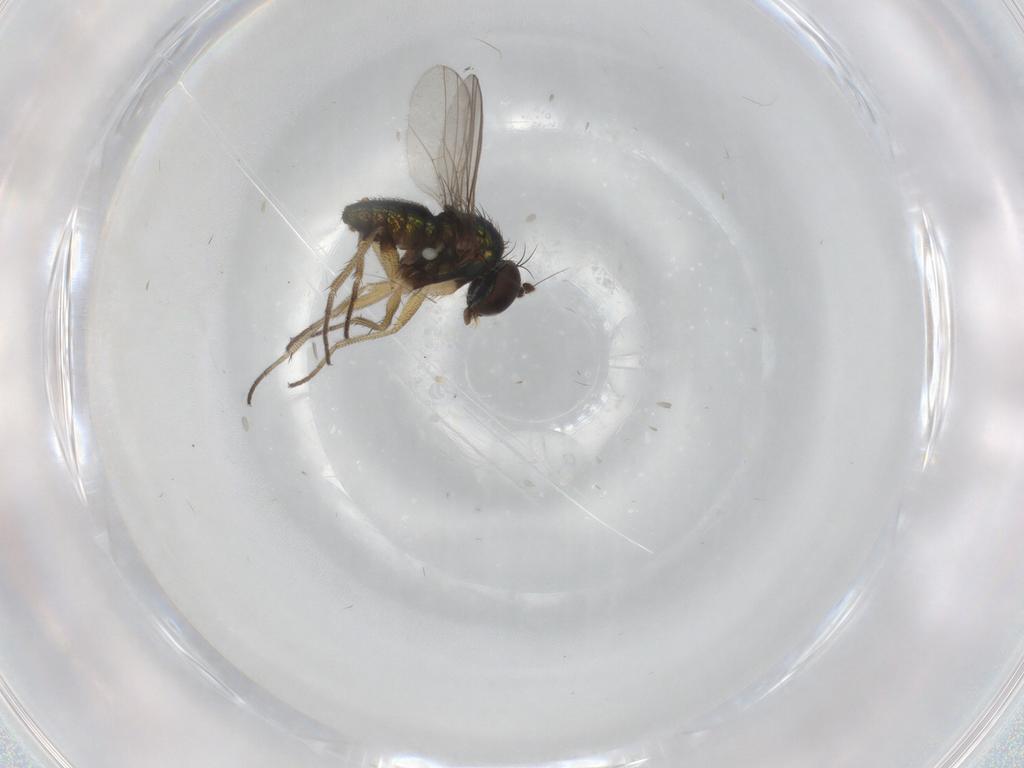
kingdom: Animalia
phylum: Arthropoda
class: Insecta
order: Diptera
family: Dolichopodidae
